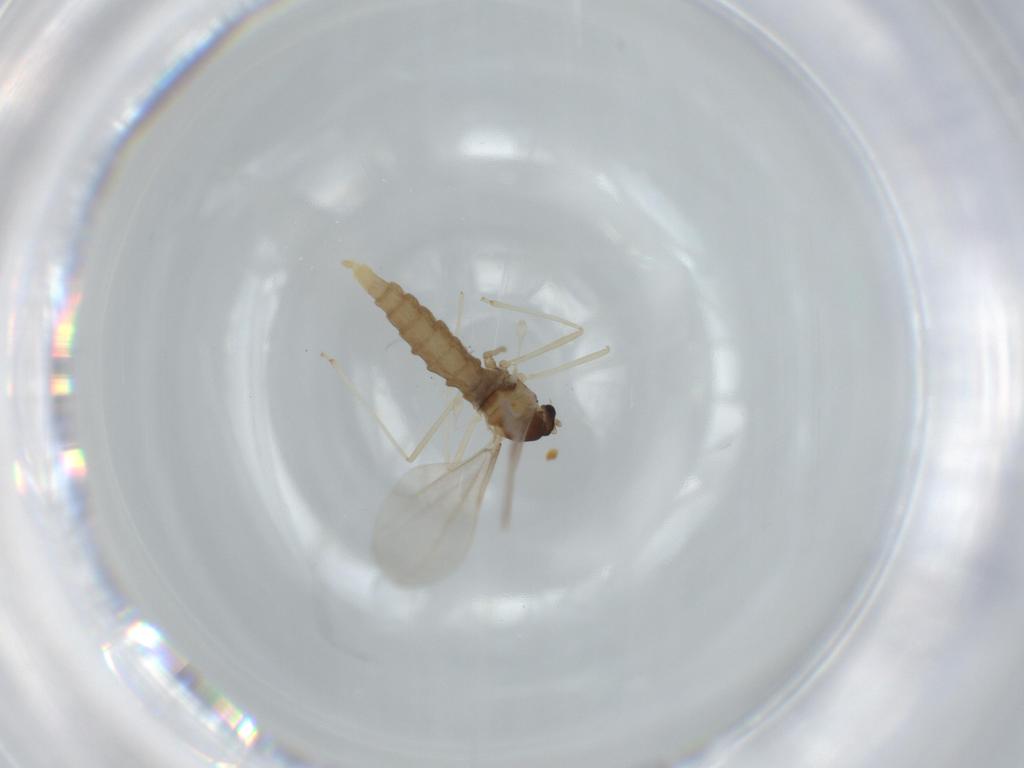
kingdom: Animalia
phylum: Arthropoda
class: Insecta
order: Diptera
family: Cecidomyiidae
